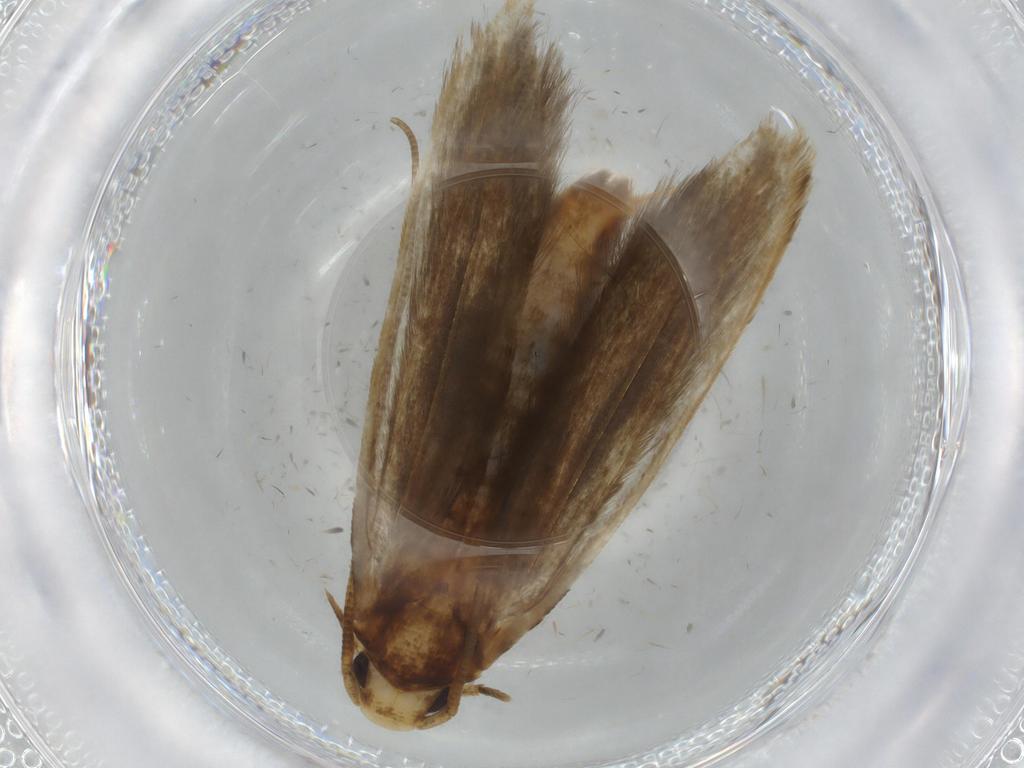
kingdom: Animalia
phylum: Arthropoda
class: Insecta
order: Lepidoptera
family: Tineidae
